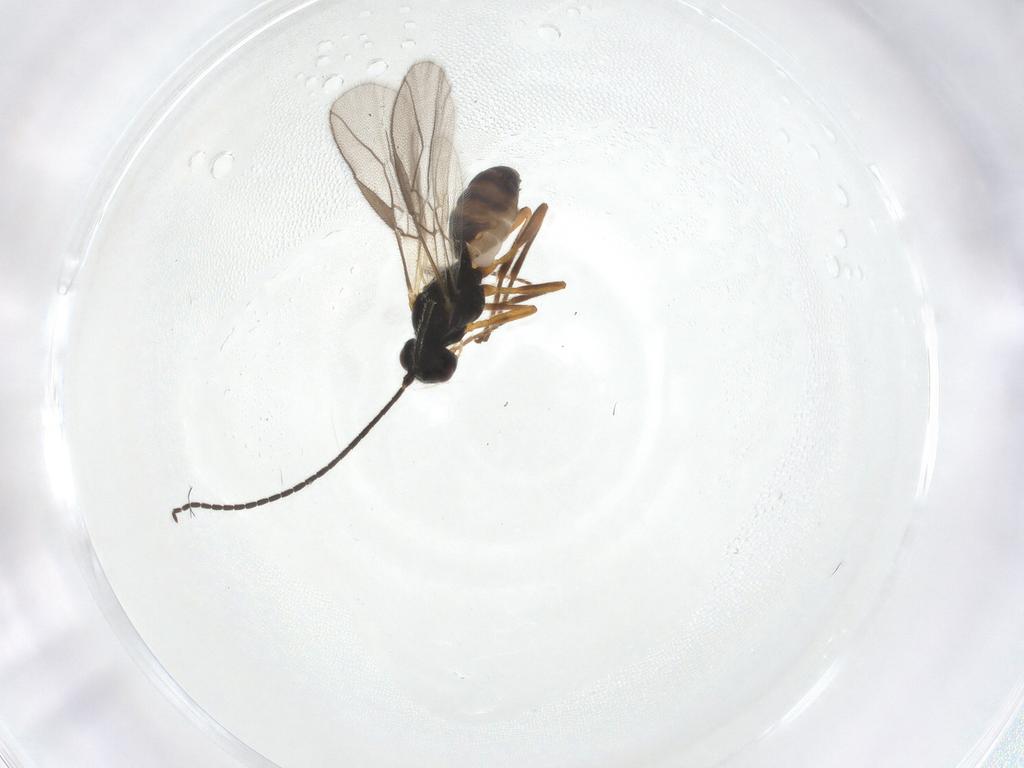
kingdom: Animalia
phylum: Arthropoda
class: Insecta
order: Hymenoptera
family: Braconidae
